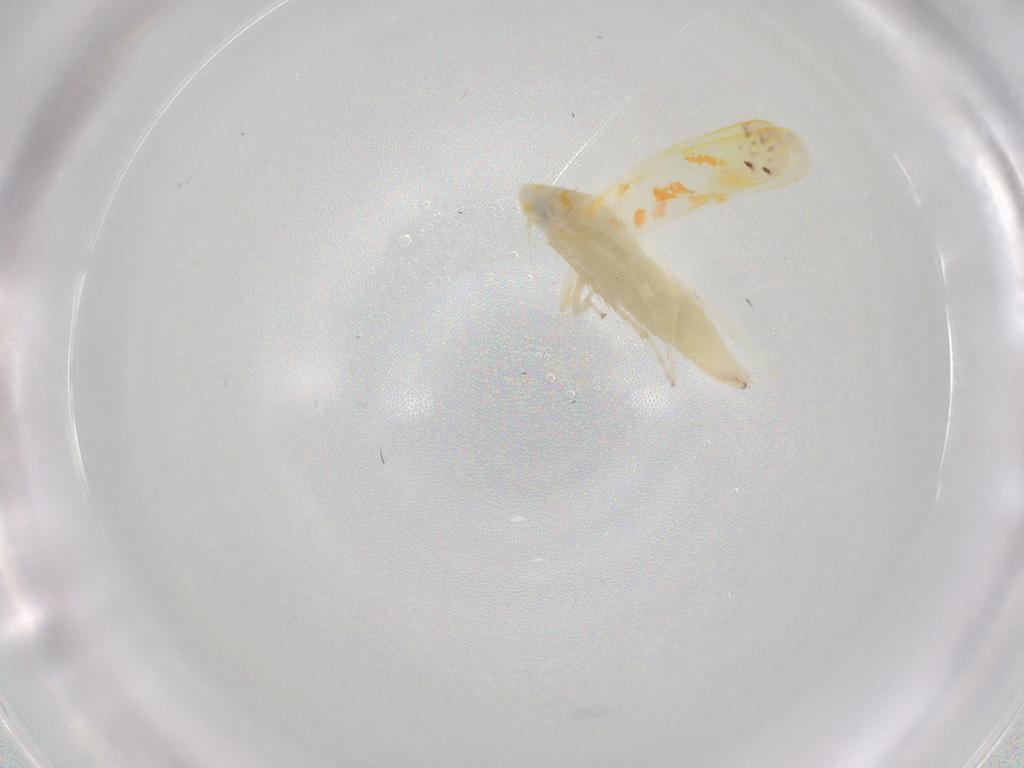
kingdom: Animalia
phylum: Arthropoda
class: Insecta
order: Hemiptera
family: Cicadellidae
